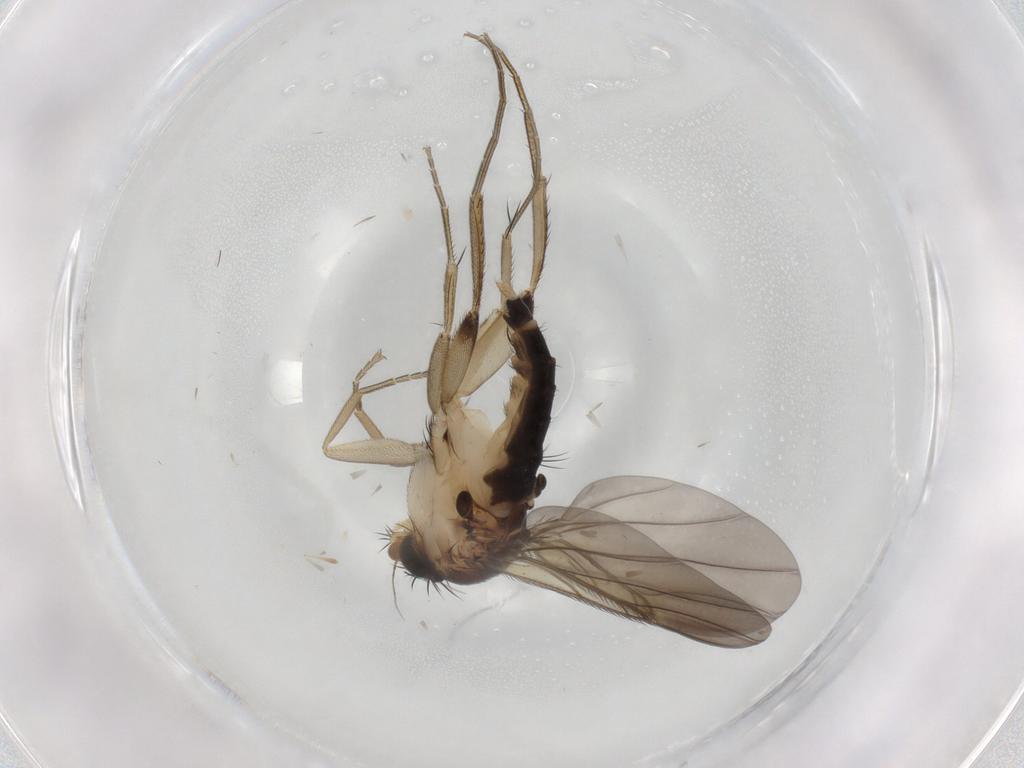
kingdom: Animalia
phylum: Arthropoda
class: Insecta
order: Diptera
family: Phoridae
